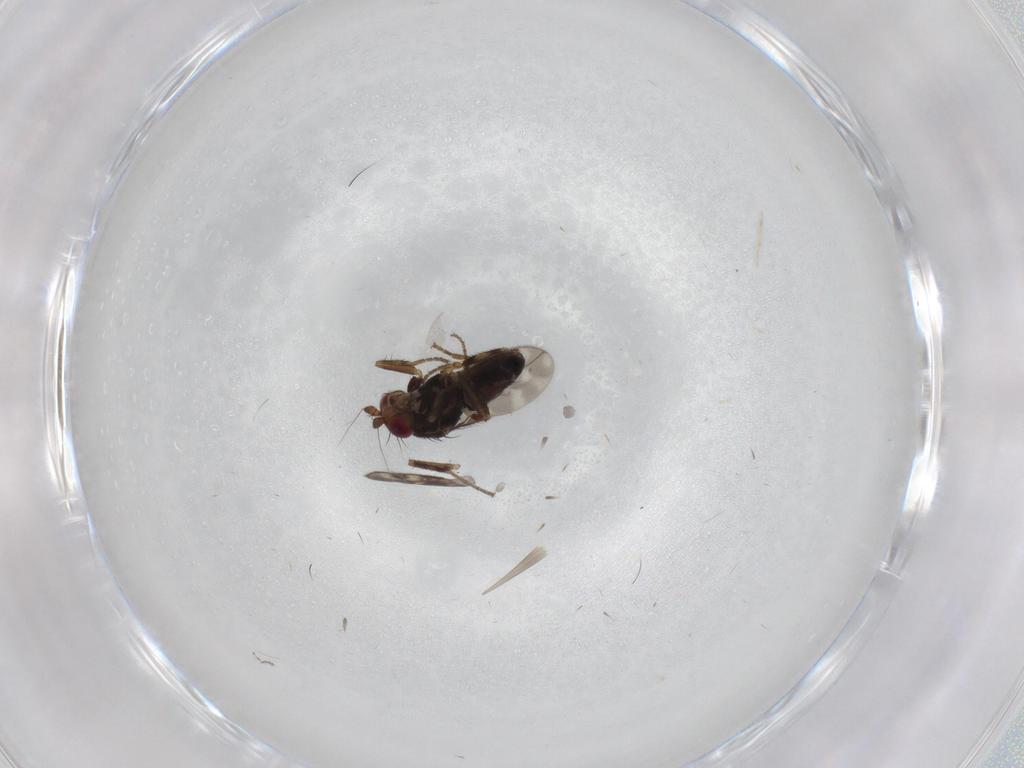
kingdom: Animalia
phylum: Arthropoda
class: Insecta
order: Diptera
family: Sphaeroceridae
